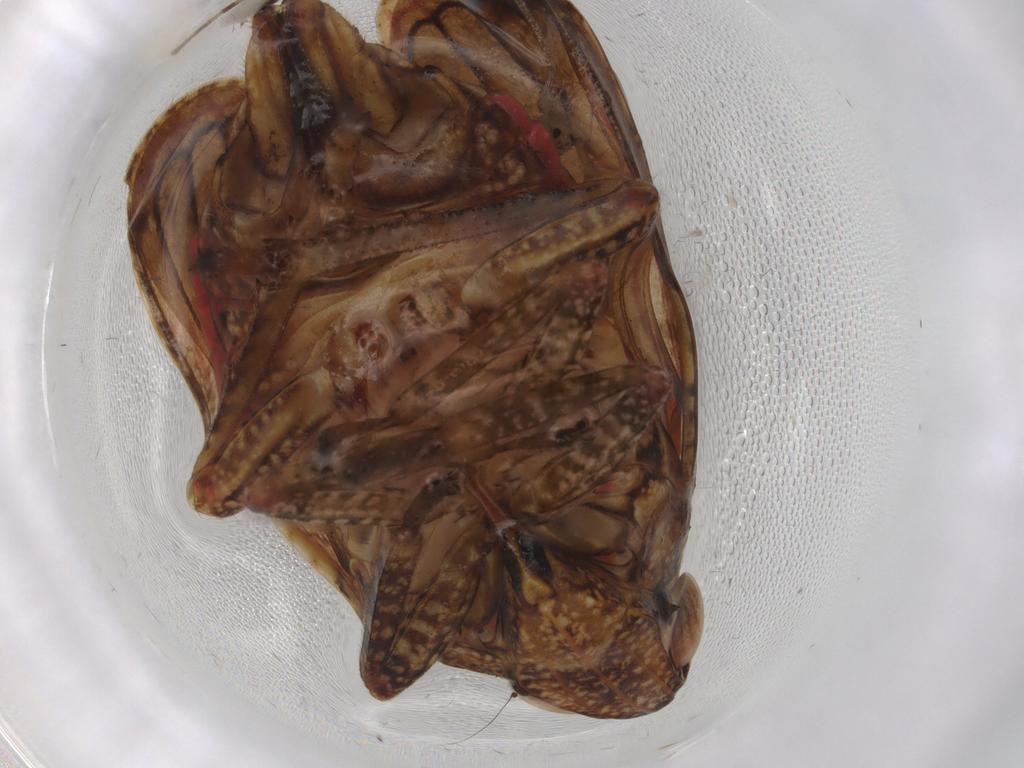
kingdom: Animalia
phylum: Arthropoda
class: Insecta
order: Hemiptera
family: Tropiduchidae
